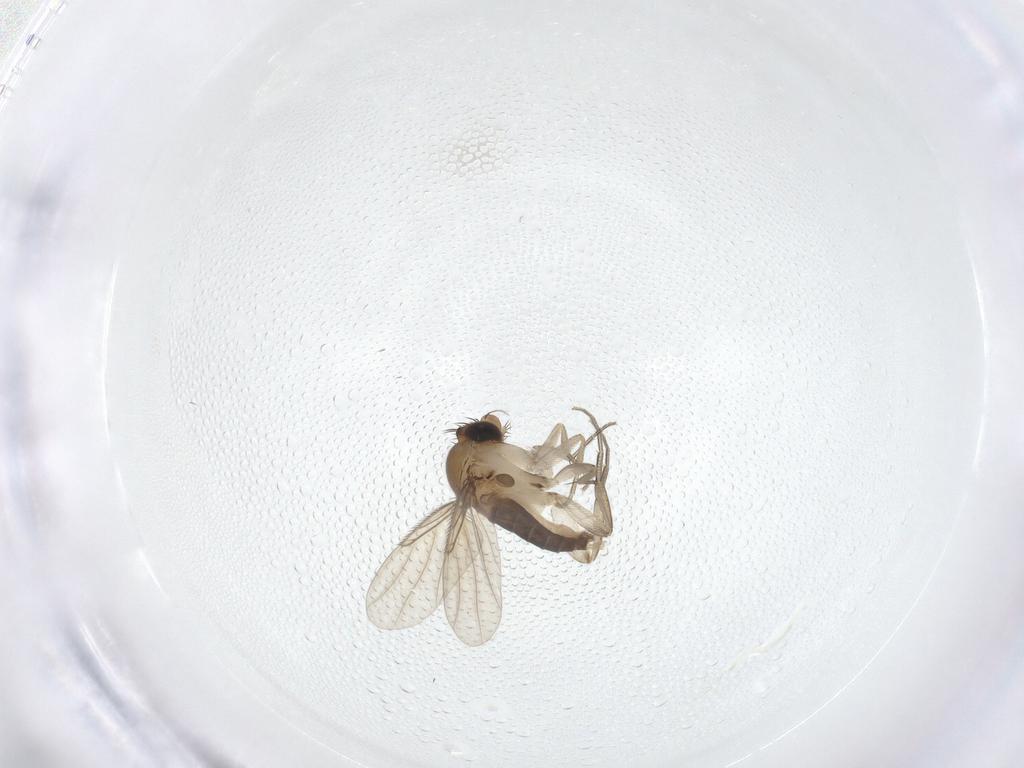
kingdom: Animalia
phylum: Arthropoda
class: Insecta
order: Diptera
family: Phoridae
